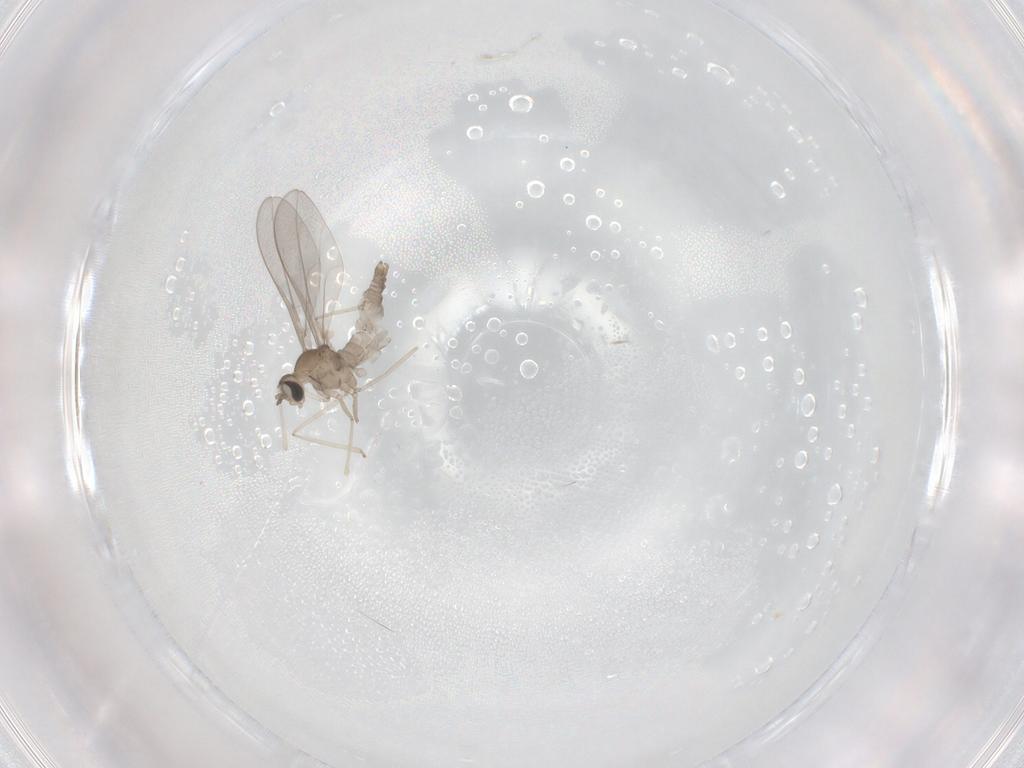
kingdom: Animalia
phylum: Arthropoda
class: Insecta
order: Diptera
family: Cecidomyiidae
